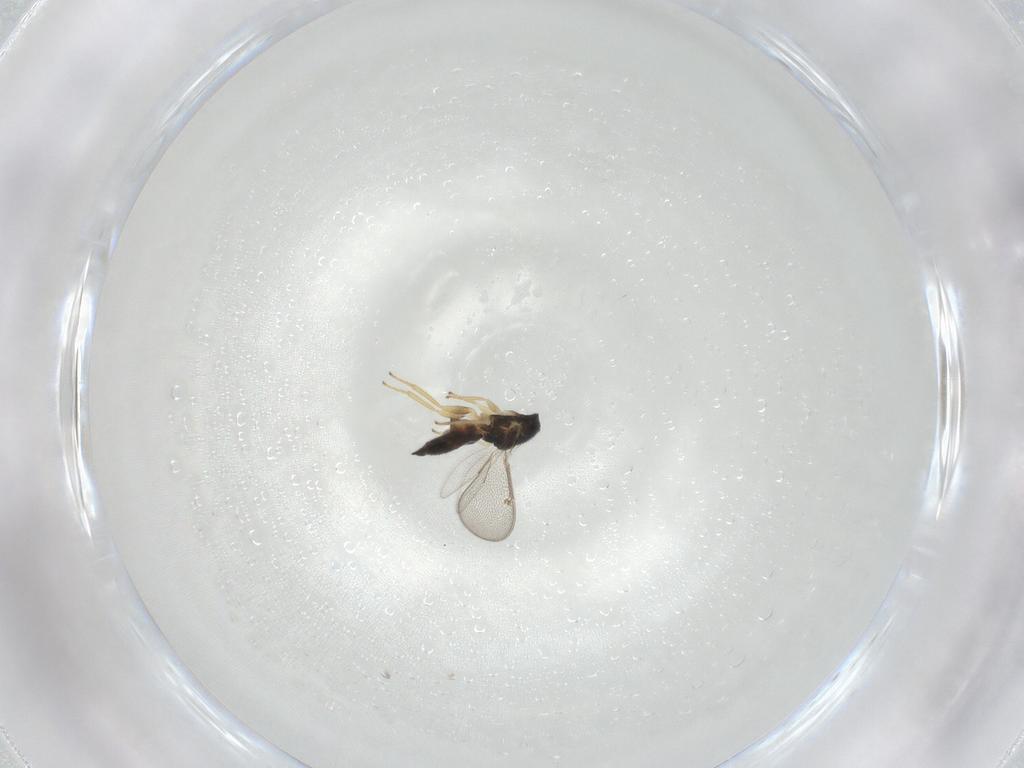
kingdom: Animalia
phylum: Arthropoda
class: Insecta
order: Hymenoptera
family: Eulophidae
